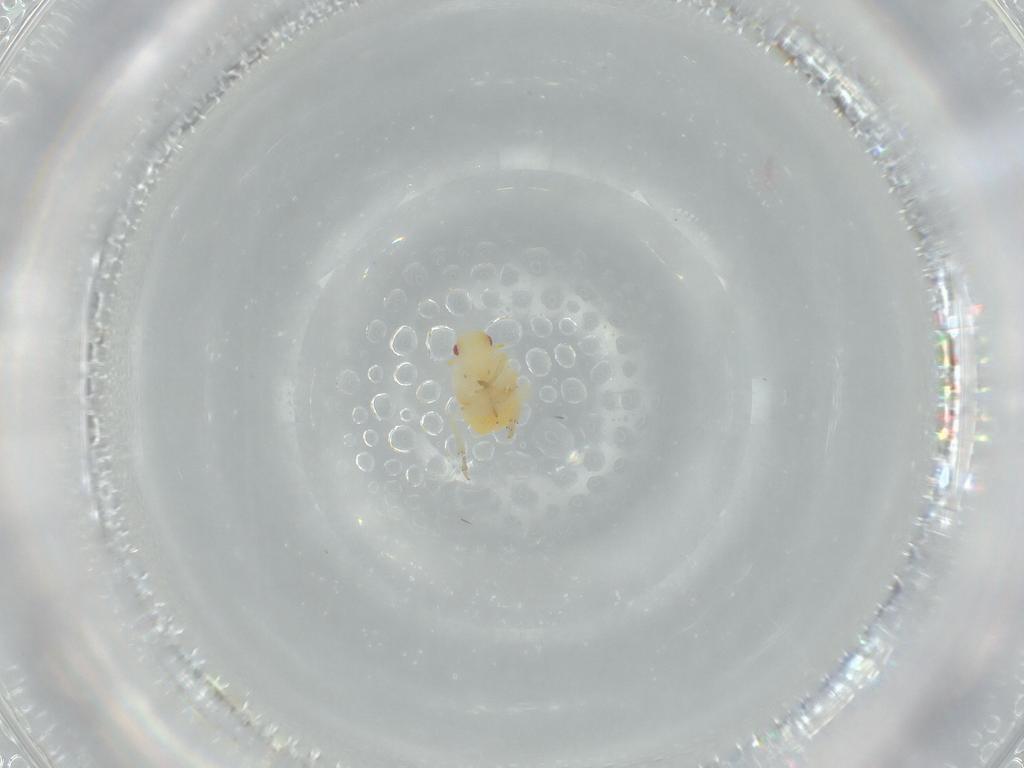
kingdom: Animalia
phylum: Arthropoda
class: Insecta
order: Hemiptera
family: Flatidae
